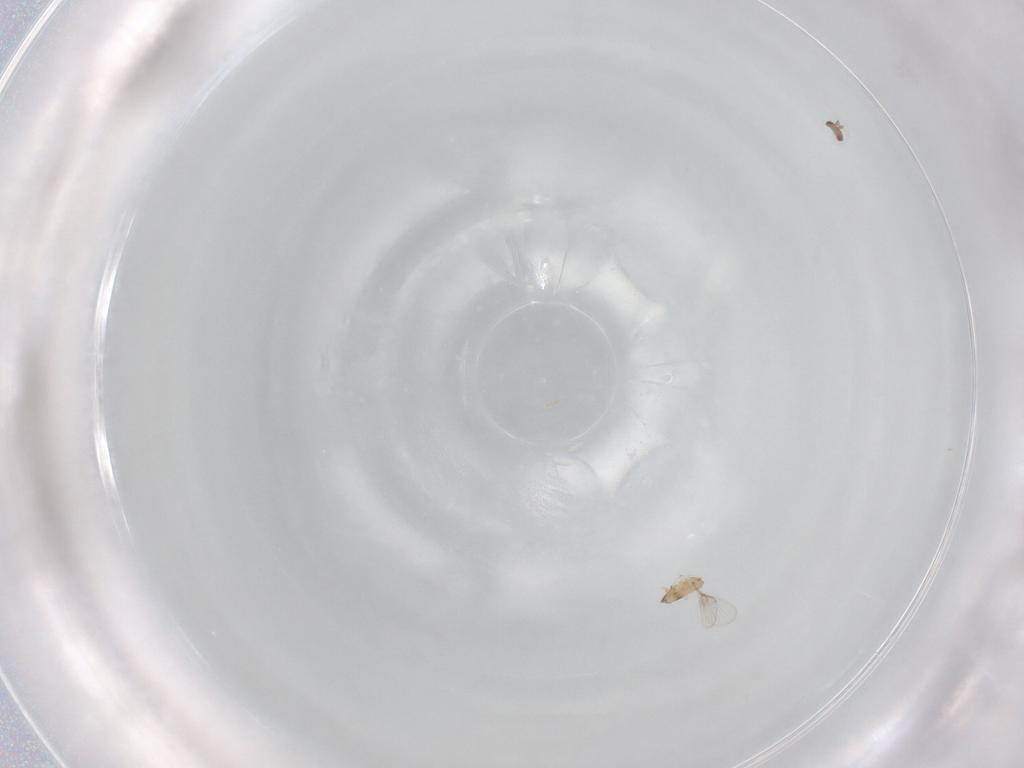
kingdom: Animalia
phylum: Arthropoda
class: Insecta
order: Hymenoptera
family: Trichogrammatidae
